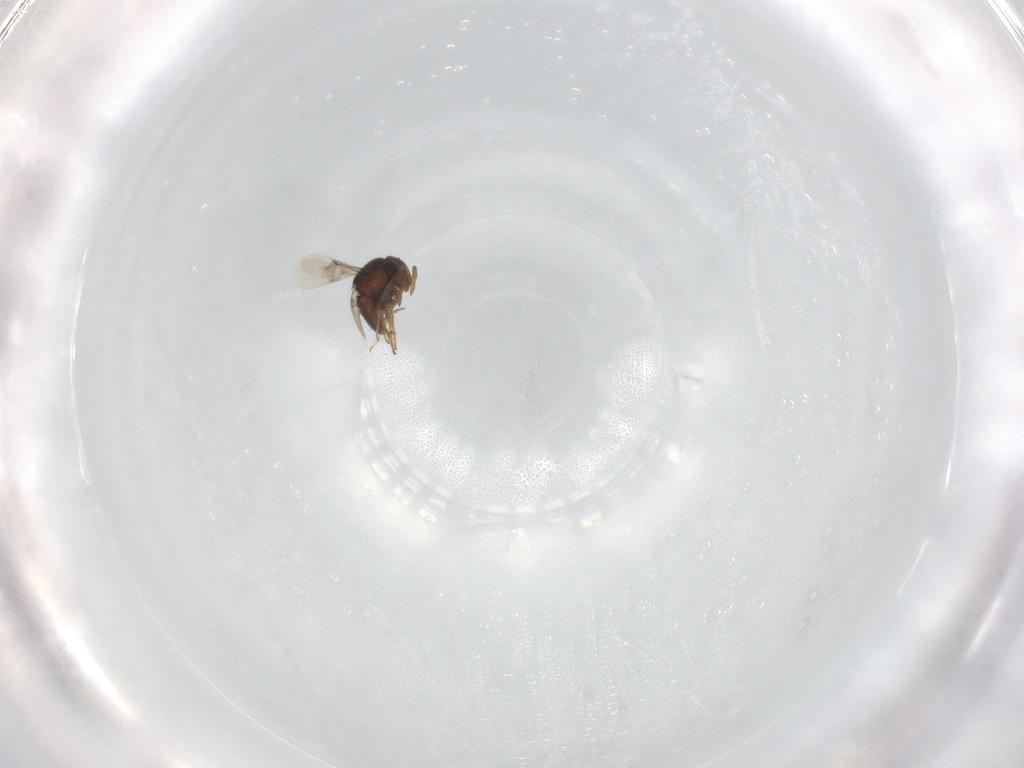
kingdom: Animalia
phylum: Arthropoda
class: Insecta
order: Hymenoptera
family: Scelionidae
